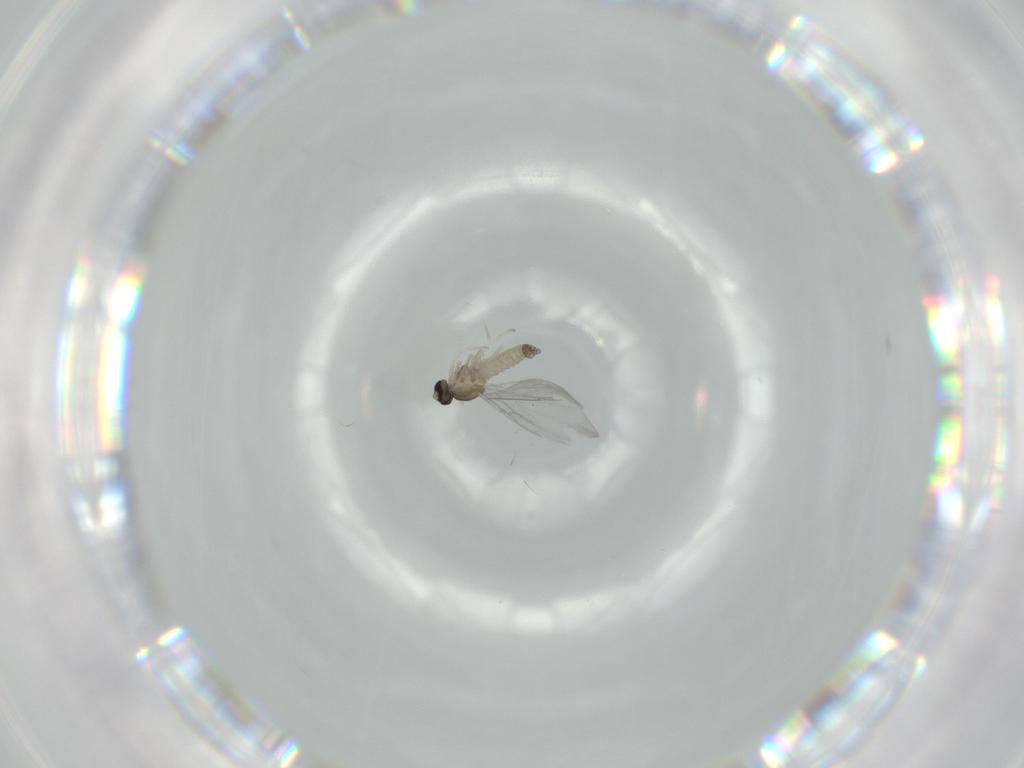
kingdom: Animalia
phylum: Arthropoda
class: Insecta
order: Diptera
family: Cecidomyiidae
